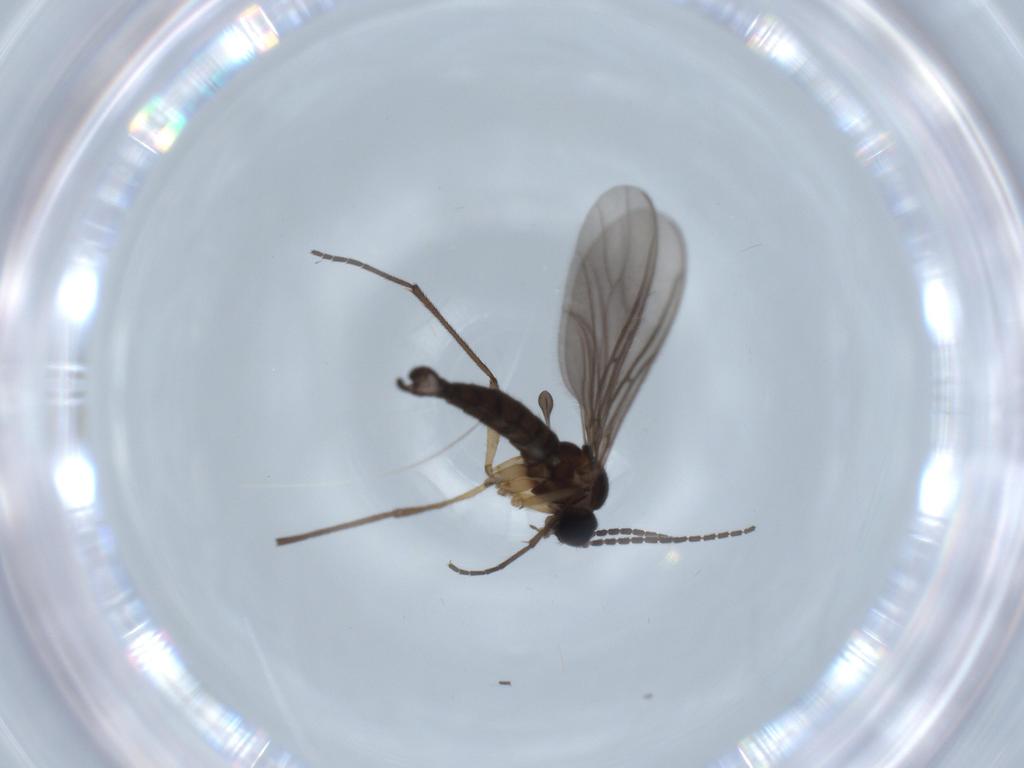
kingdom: Animalia
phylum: Arthropoda
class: Insecta
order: Diptera
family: Sciaridae
